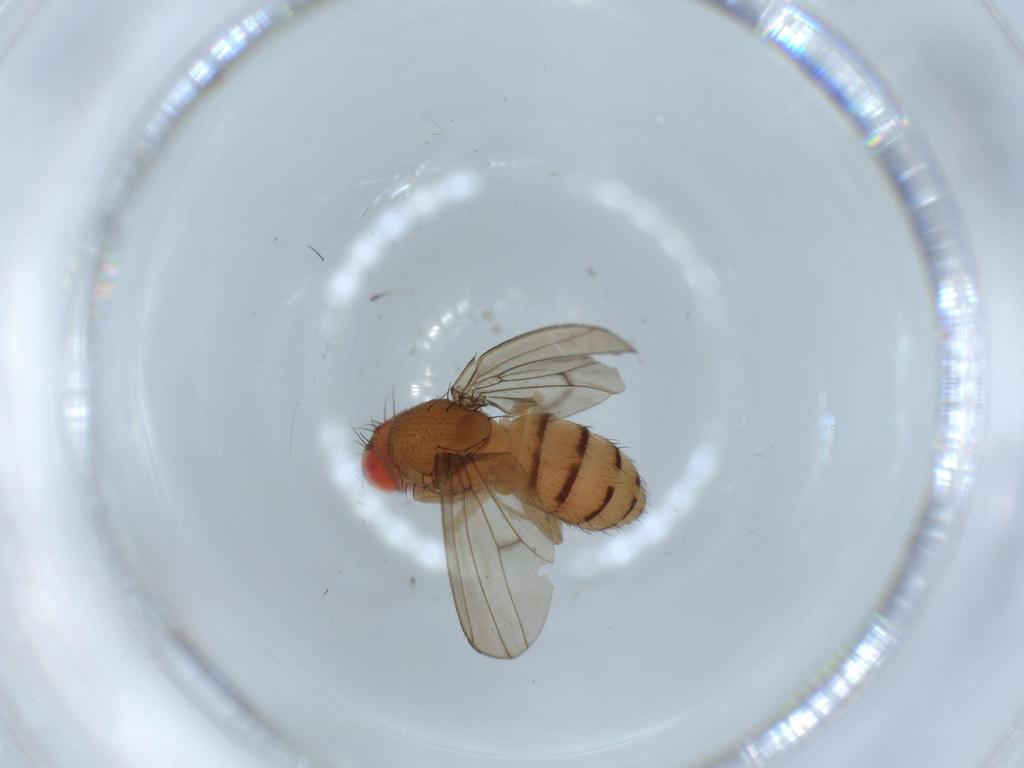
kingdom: Animalia
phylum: Arthropoda
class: Insecta
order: Diptera
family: Drosophilidae
